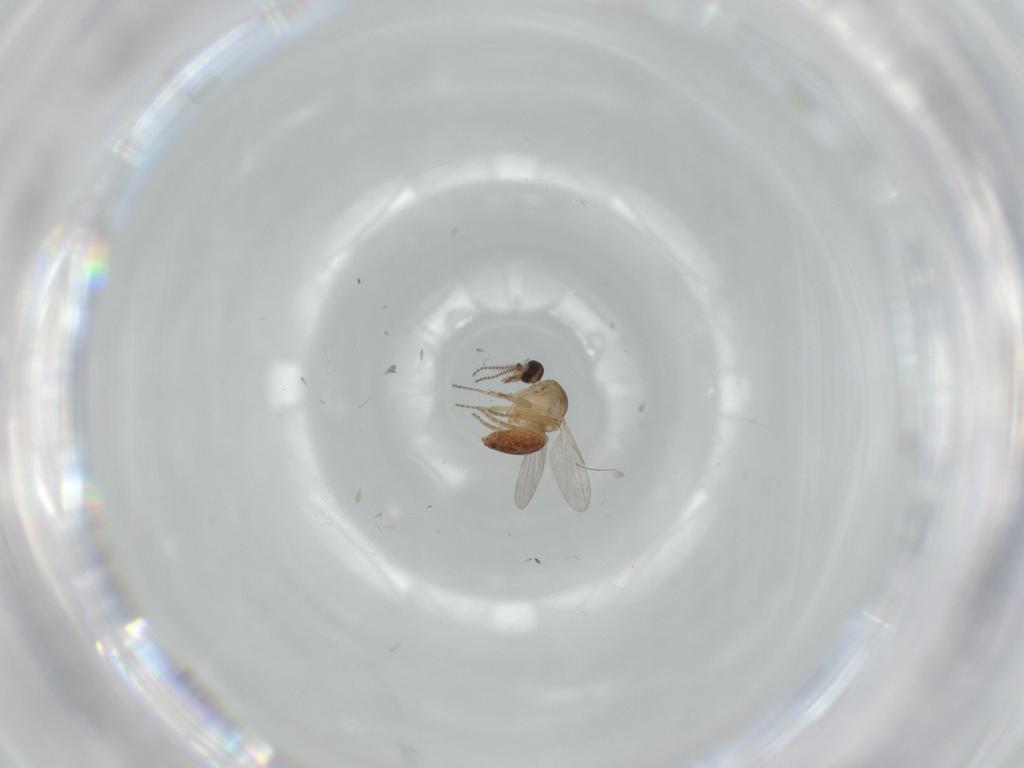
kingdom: Animalia
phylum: Arthropoda
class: Insecta
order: Diptera
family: Ceratopogonidae
